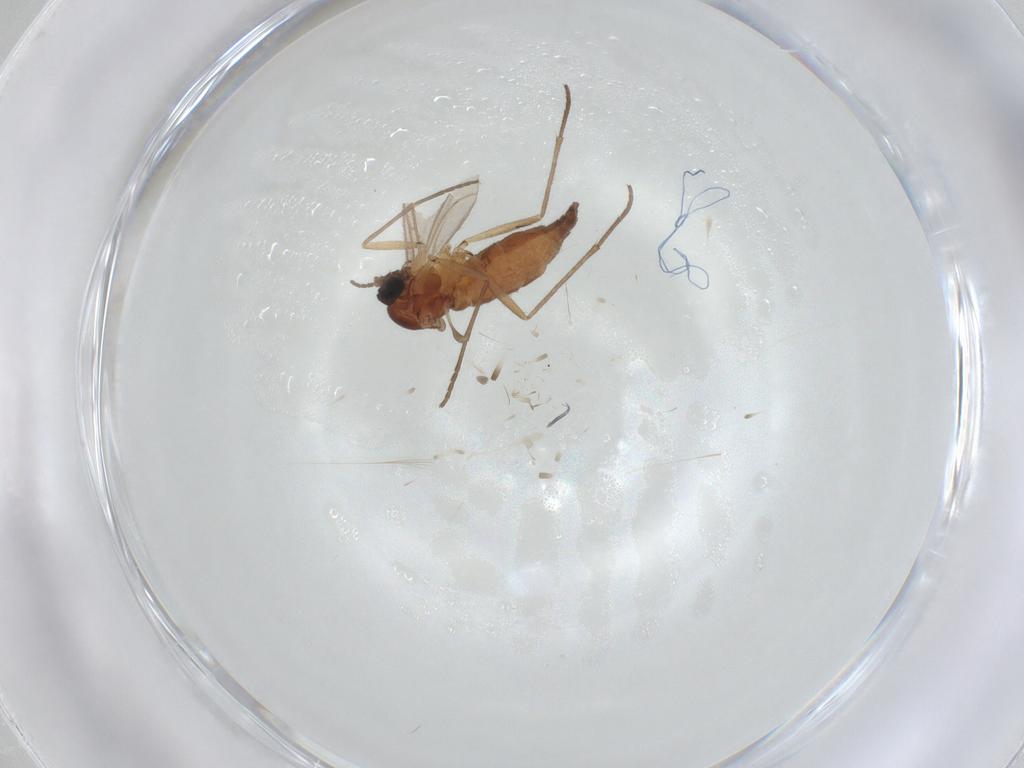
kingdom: Animalia
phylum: Arthropoda
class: Insecta
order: Diptera
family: Sciaridae
